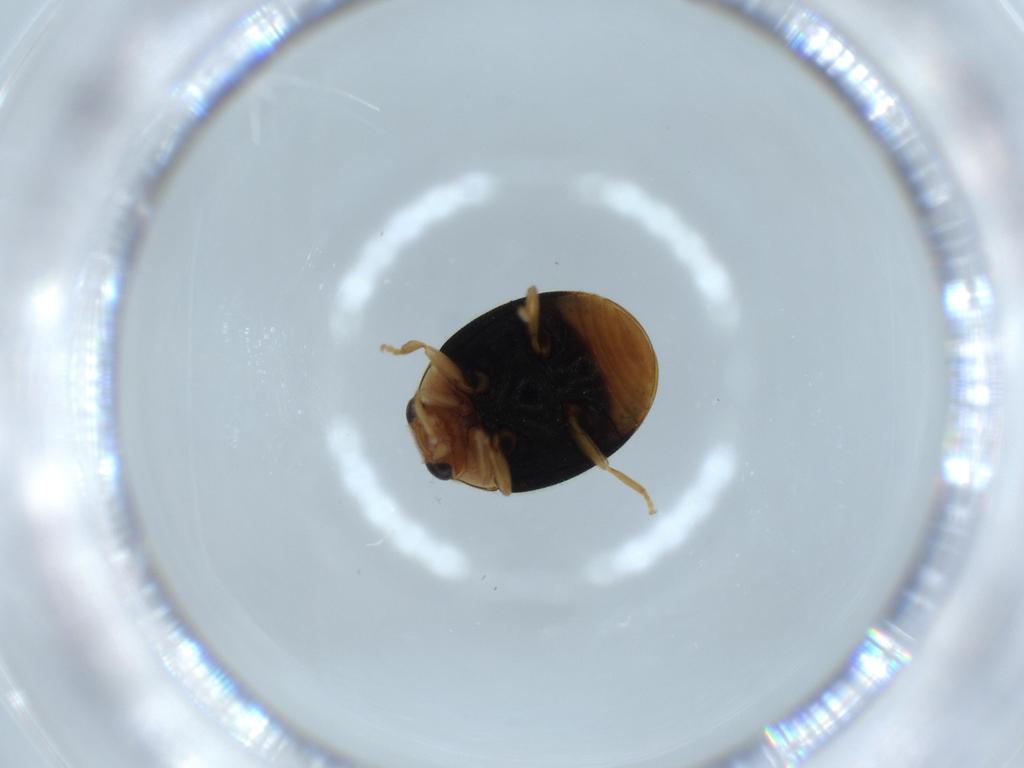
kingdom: Animalia
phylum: Arthropoda
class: Insecta
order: Coleoptera
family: Coccinellidae
